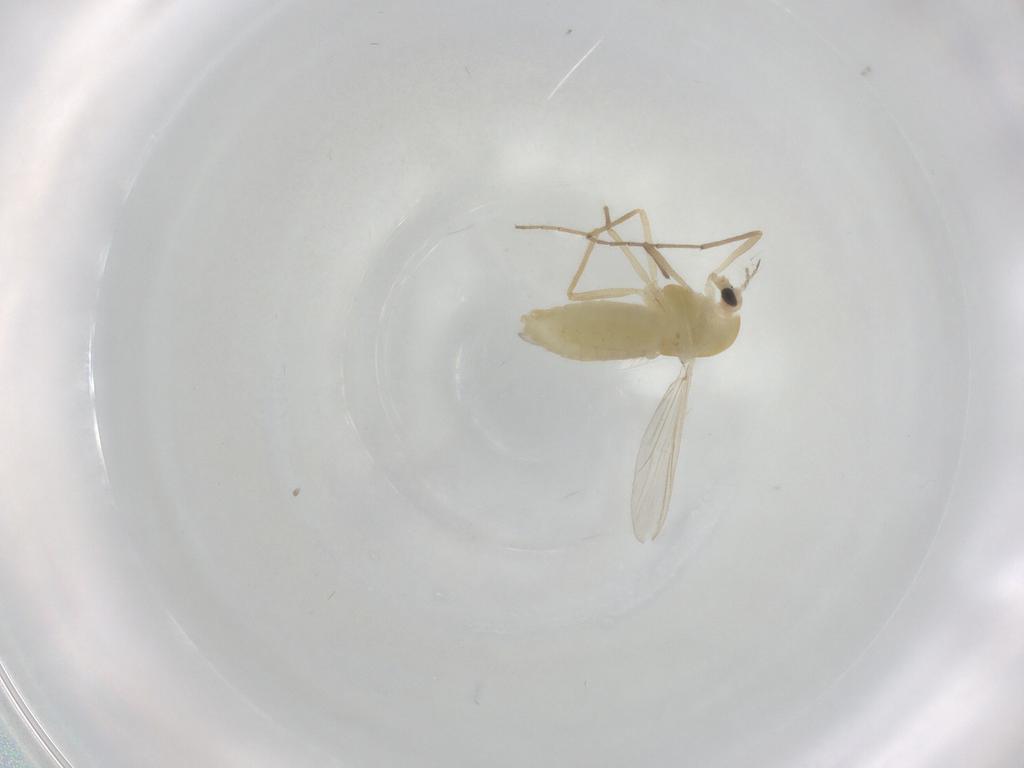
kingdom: Animalia
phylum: Arthropoda
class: Insecta
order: Diptera
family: Chironomidae
